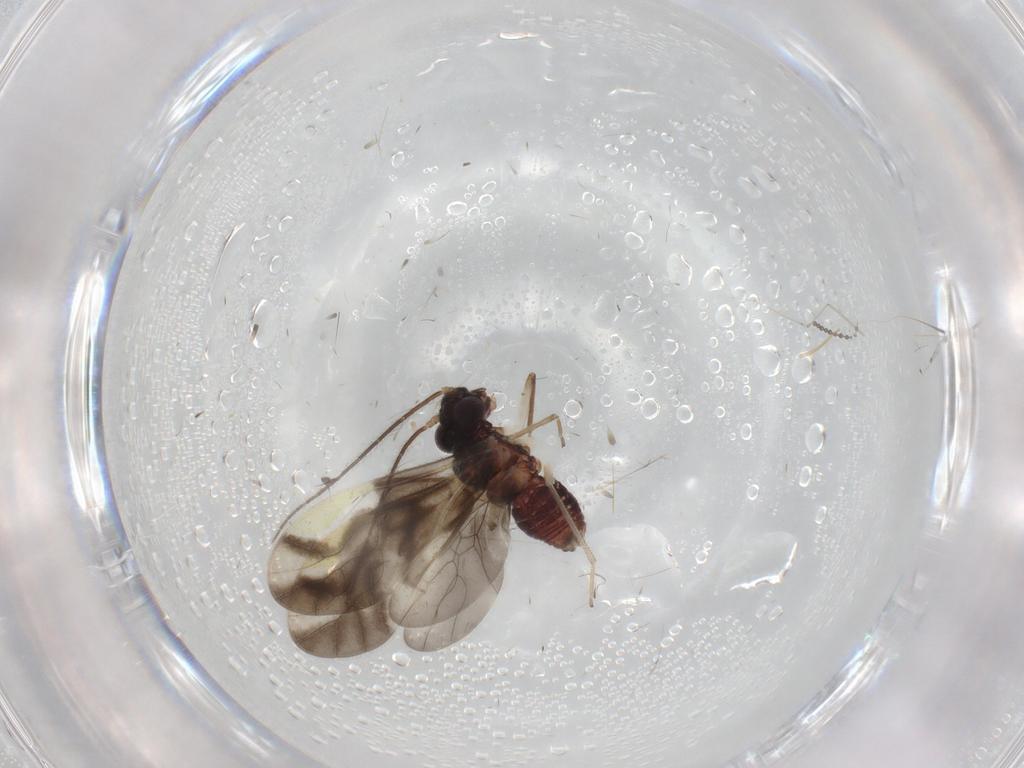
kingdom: Animalia
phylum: Arthropoda
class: Insecta
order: Psocodea
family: Caeciliusidae
